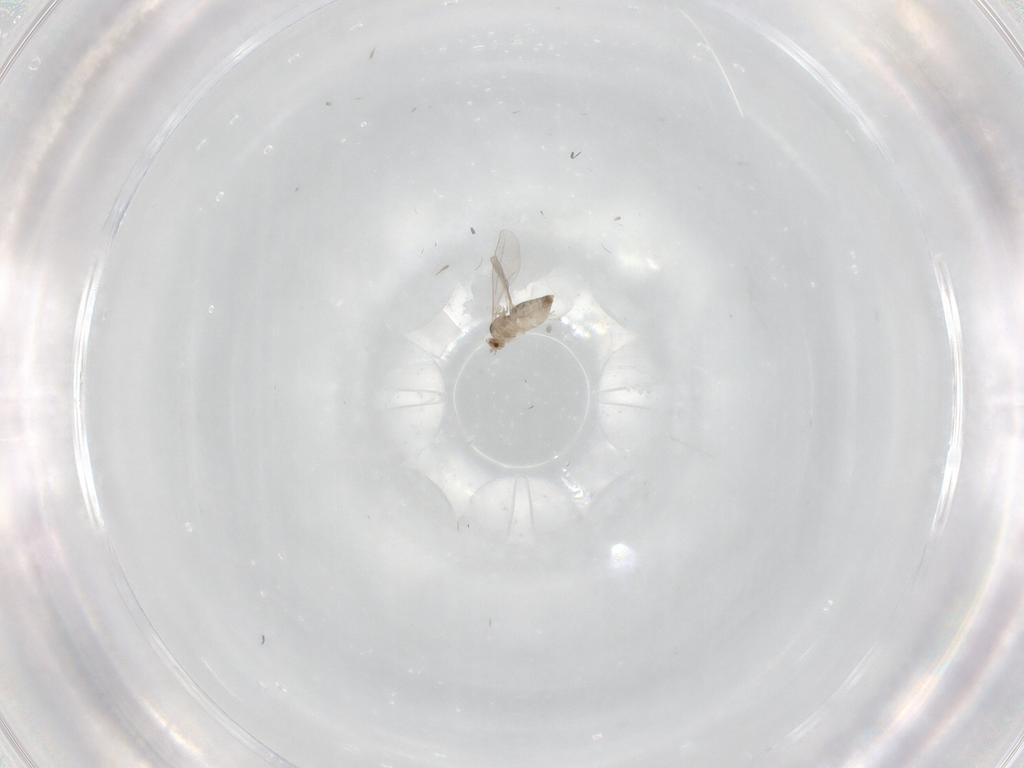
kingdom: Animalia
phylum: Arthropoda
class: Insecta
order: Diptera
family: Cecidomyiidae
